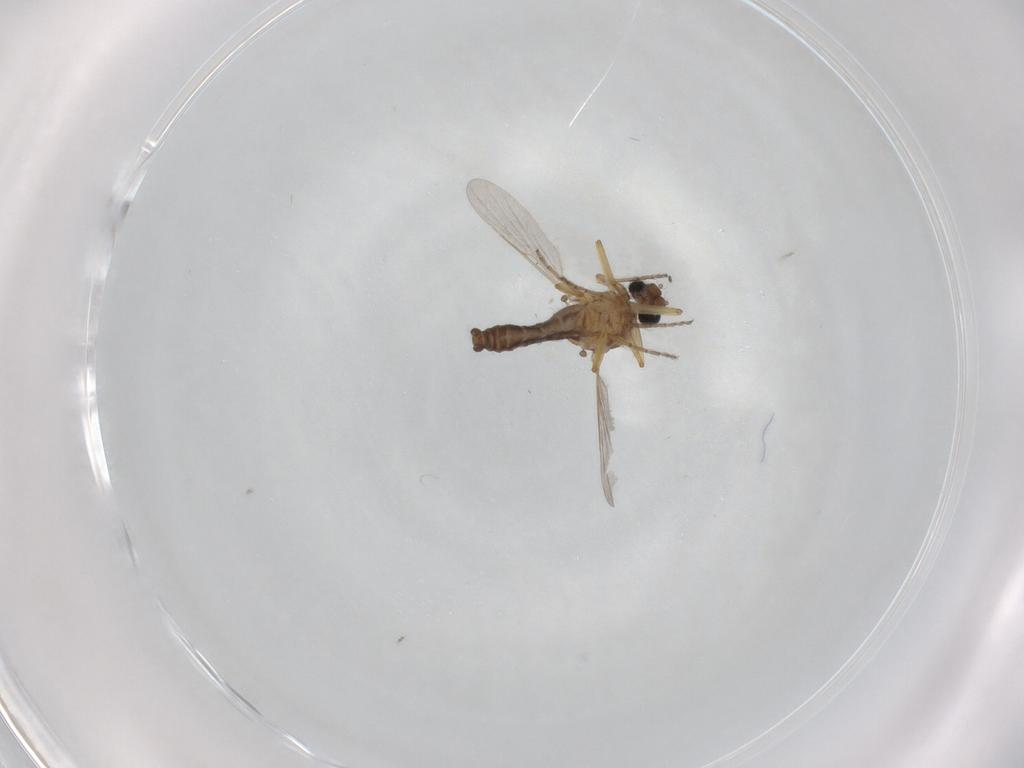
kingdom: Animalia
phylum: Arthropoda
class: Insecta
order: Diptera
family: Ceratopogonidae
